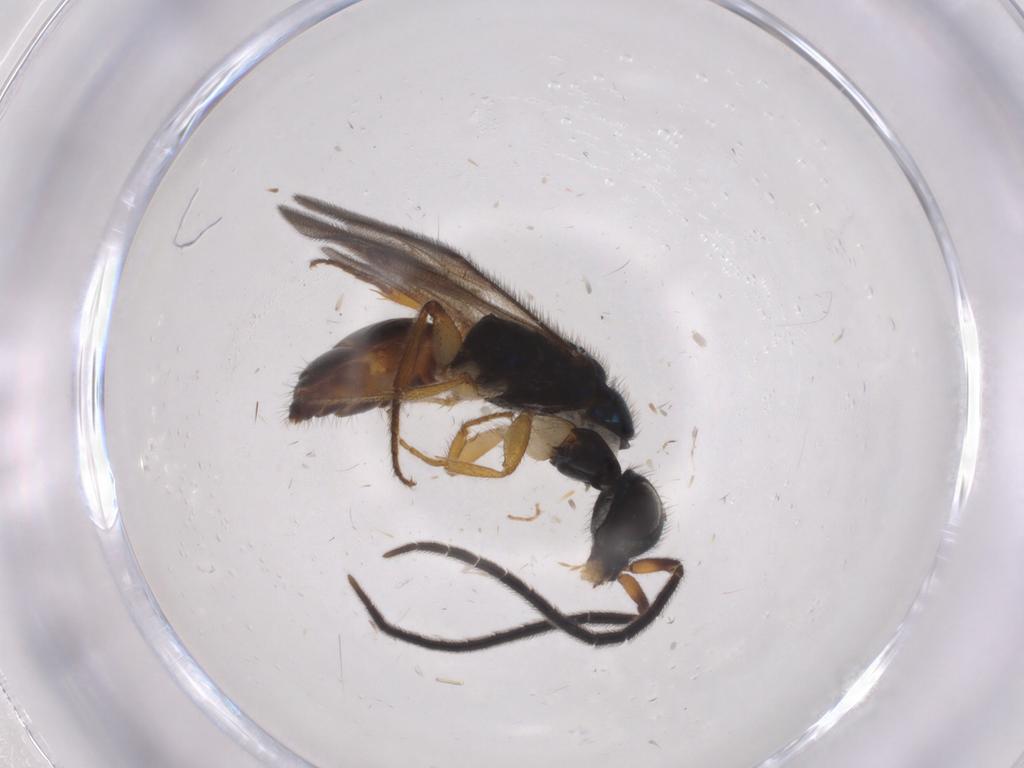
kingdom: Animalia
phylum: Arthropoda
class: Insecta
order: Hymenoptera
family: Chrysididae
